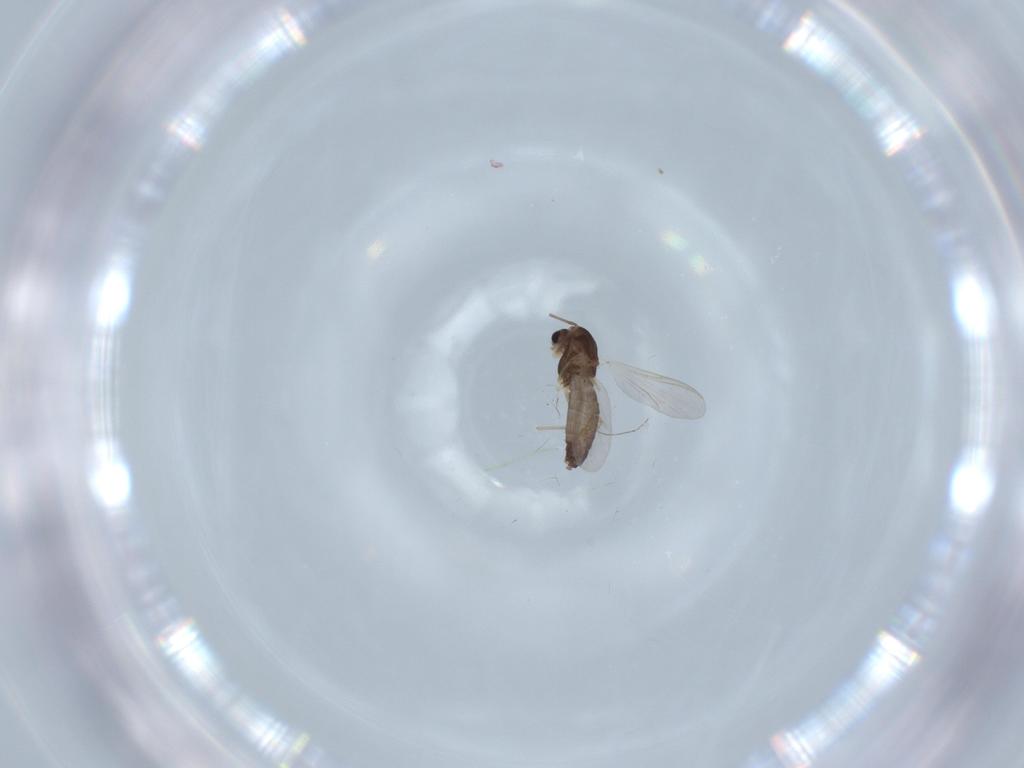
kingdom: Animalia
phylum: Arthropoda
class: Insecta
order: Diptera
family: Chironomidae
